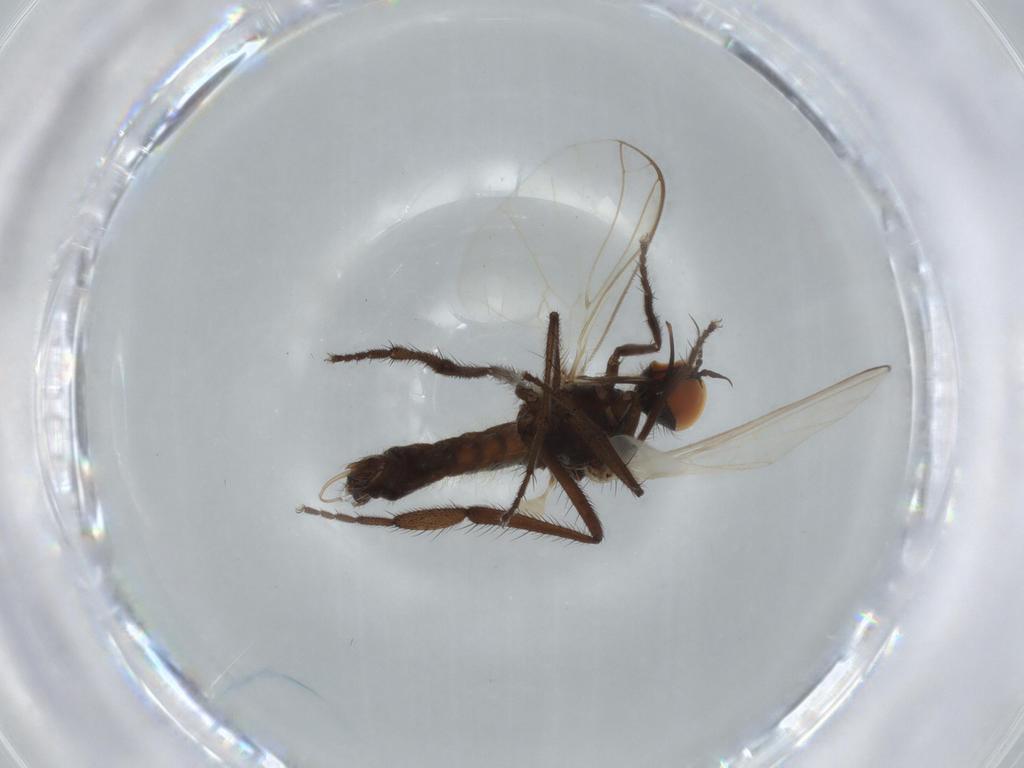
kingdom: Animalia
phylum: Arthropoda
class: Insecta
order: Diptera
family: Empididae
